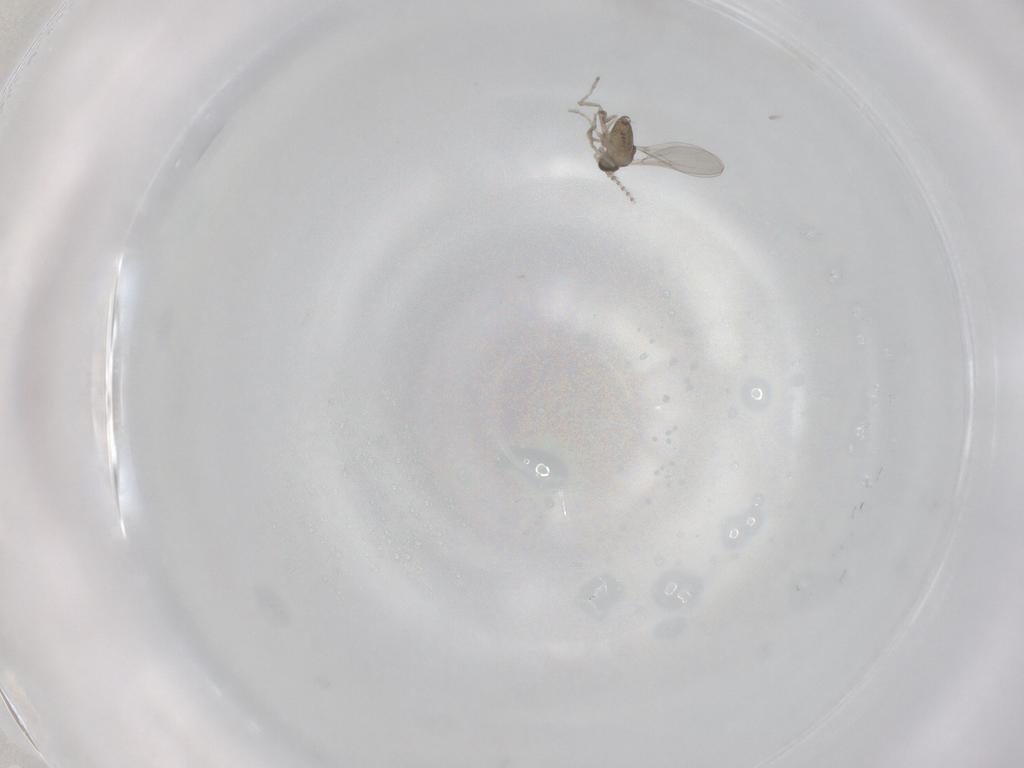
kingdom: Animalia
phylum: Arthropoda
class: Insecta
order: Diptera
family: Cecidomyiidae
